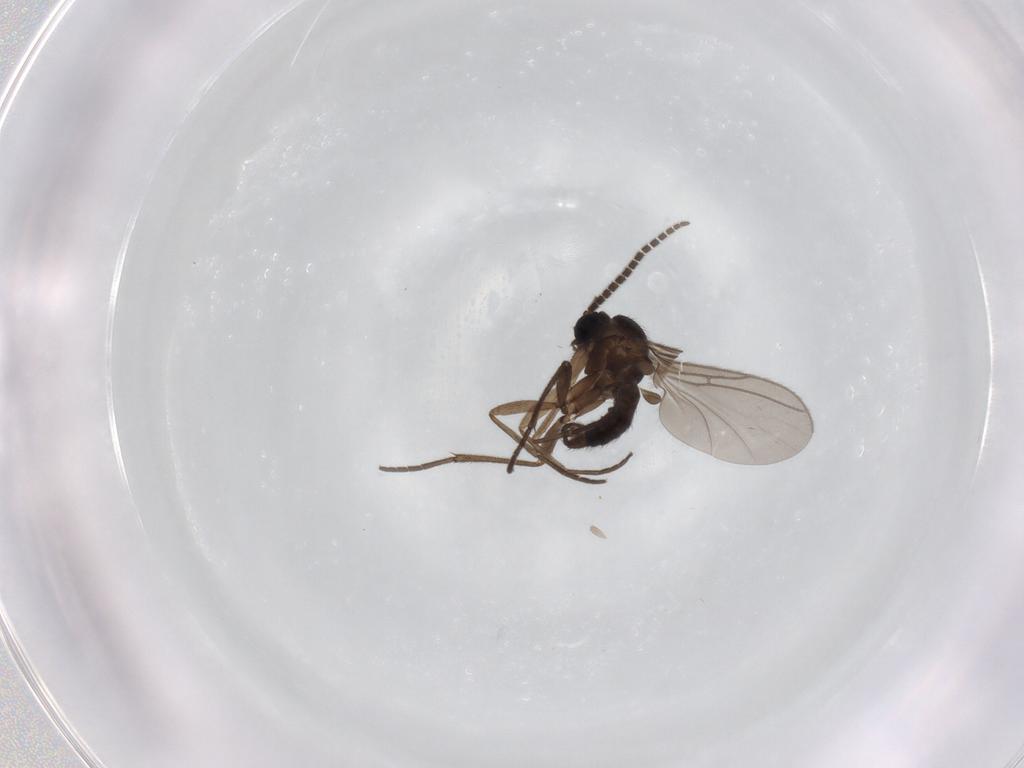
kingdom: Animalia
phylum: Arthropoda
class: Insecta
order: Diptera
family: Sciaridae
